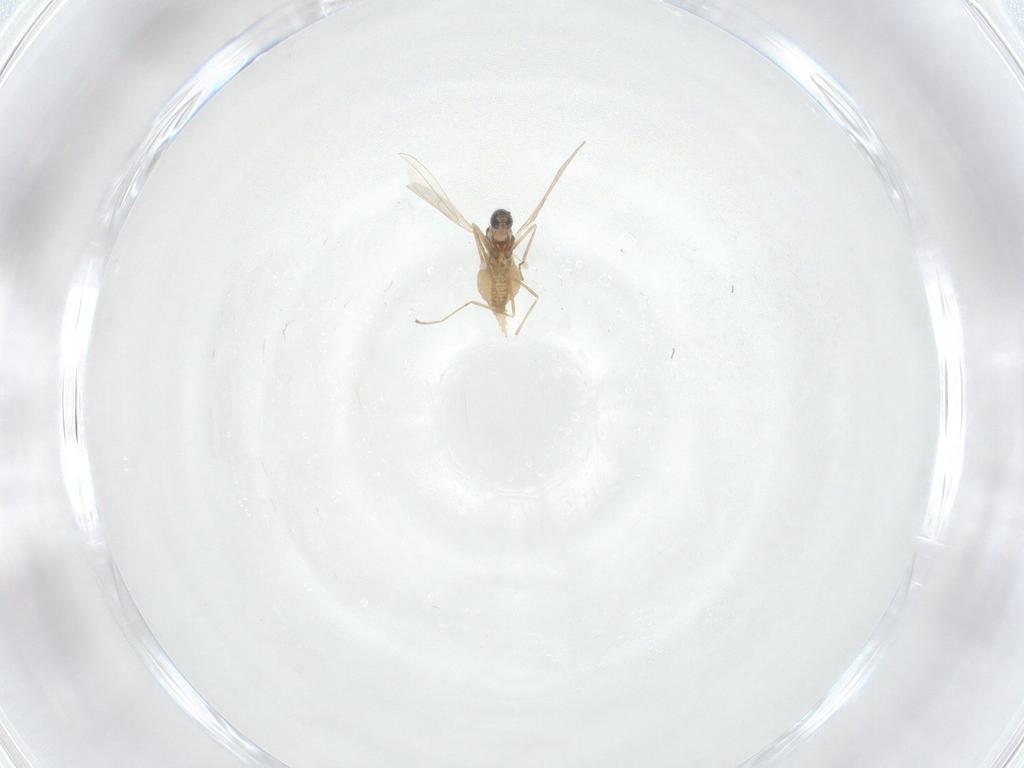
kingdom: Animalia
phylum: Arthropoda
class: Insecta
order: Diptera
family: Cecidomyiidae
